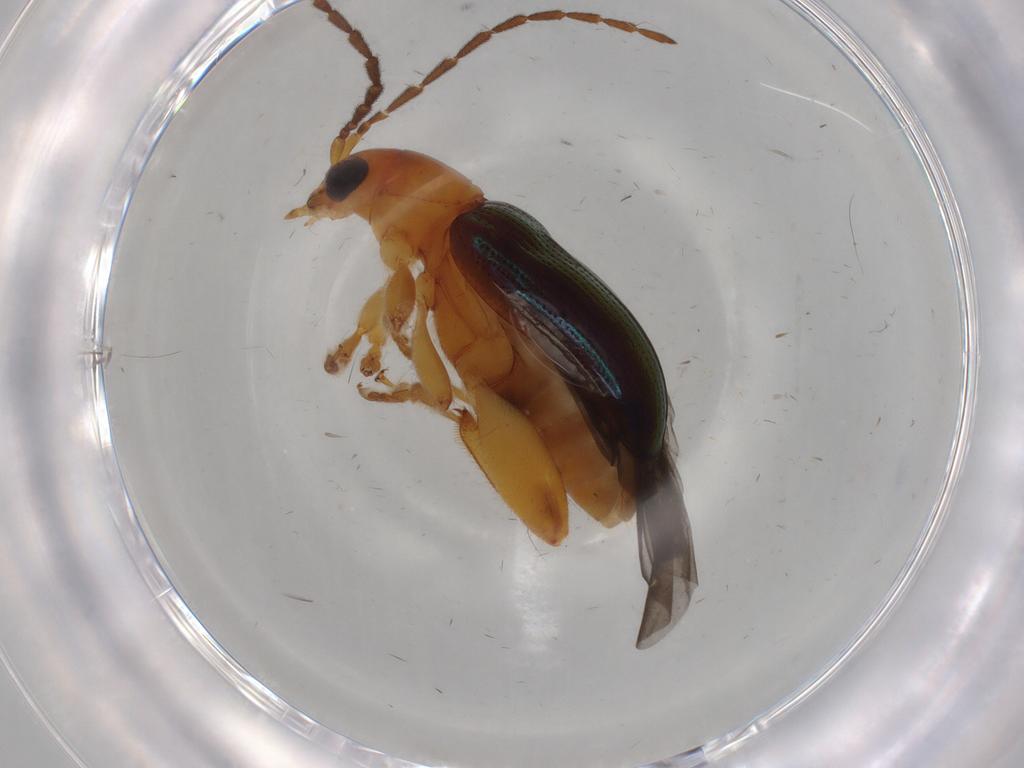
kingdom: Animalia
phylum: Arthropoda
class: Insecta
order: Coleoptera
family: Chrysomelidae
